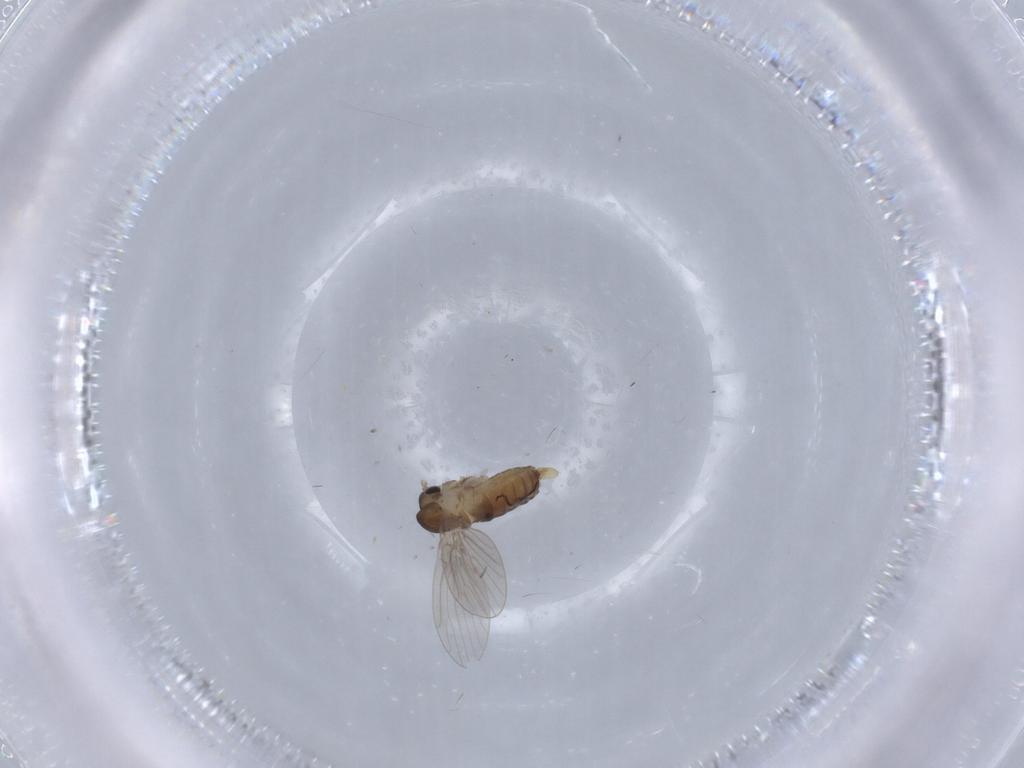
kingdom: Animalia
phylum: Arthropoda
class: Insecta
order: Diptera
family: Psychodidae
